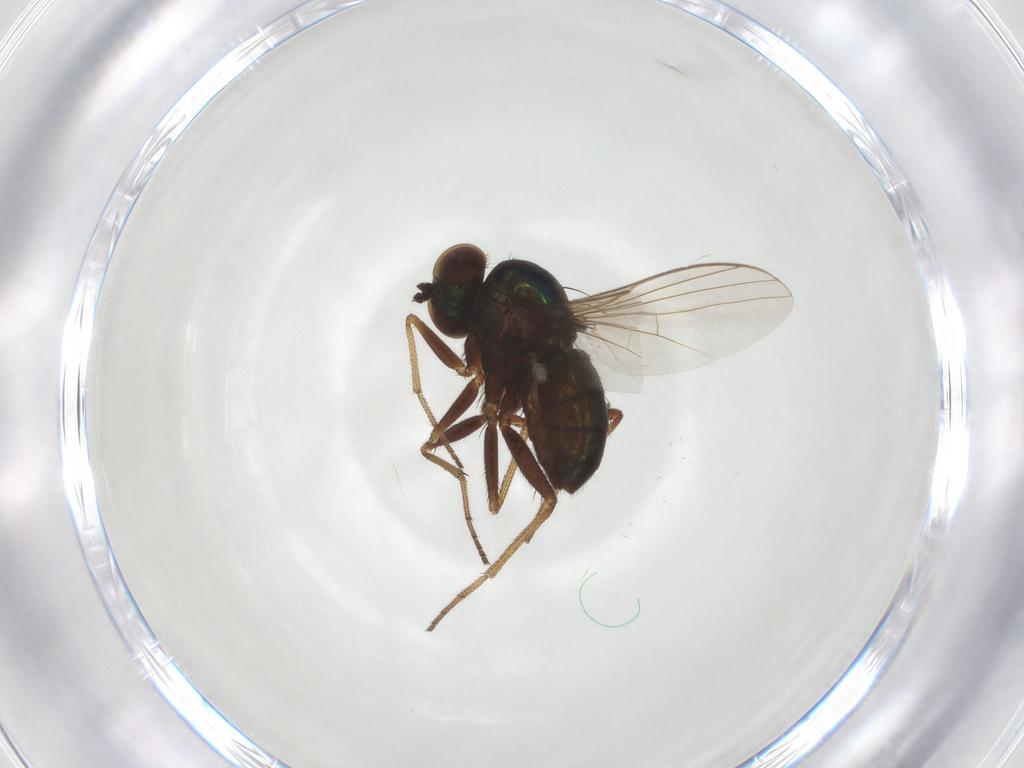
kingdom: Animalia
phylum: Arthropoda
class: Insecta
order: Diptera
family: Dolichopodidae
